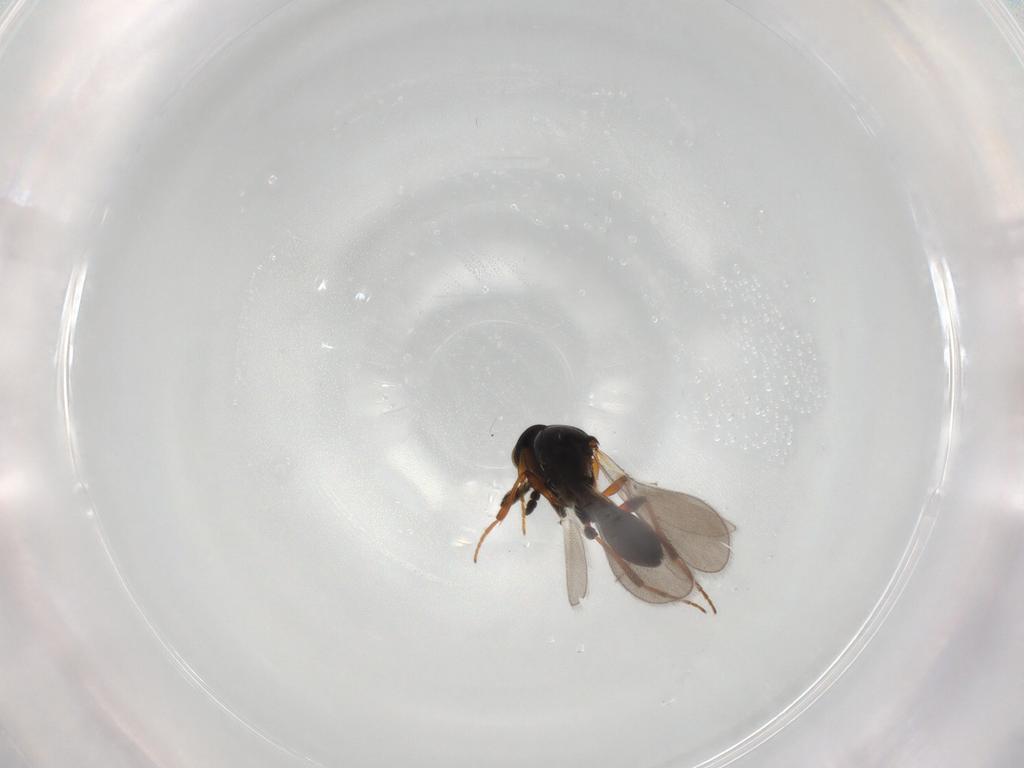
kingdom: Animalia
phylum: Arthropoda
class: Insecta
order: Hymenoptera
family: Platygastridae
